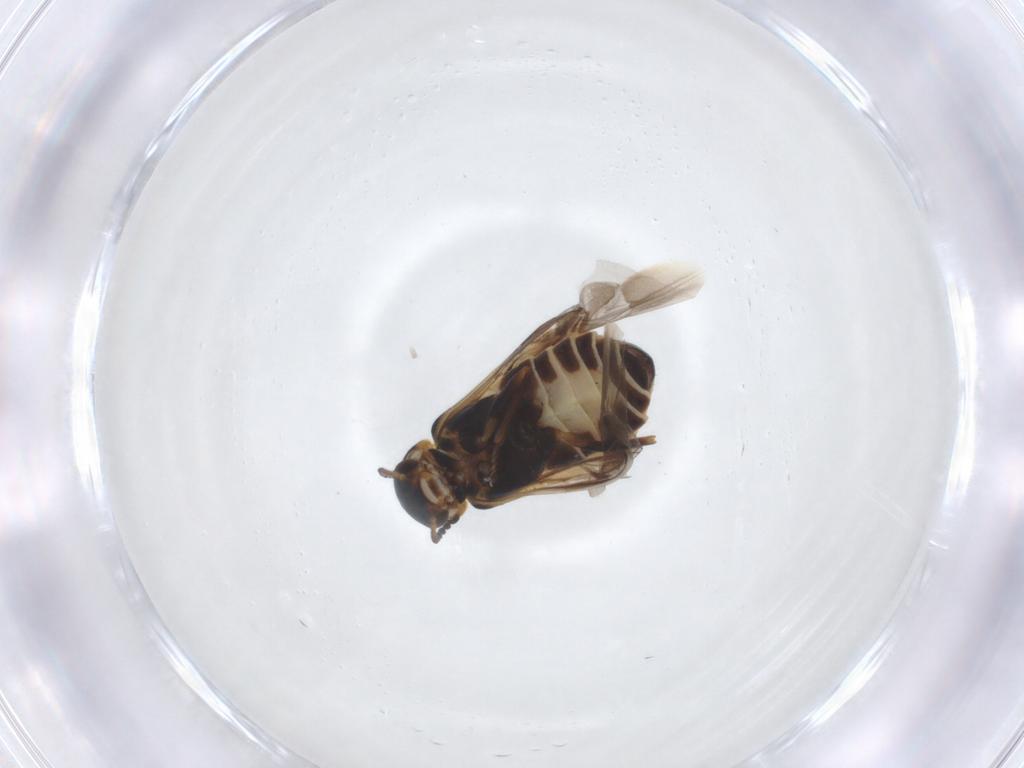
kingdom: Animalia
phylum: Arthropoda
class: Insecta
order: Coleoptera
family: Melyridae
